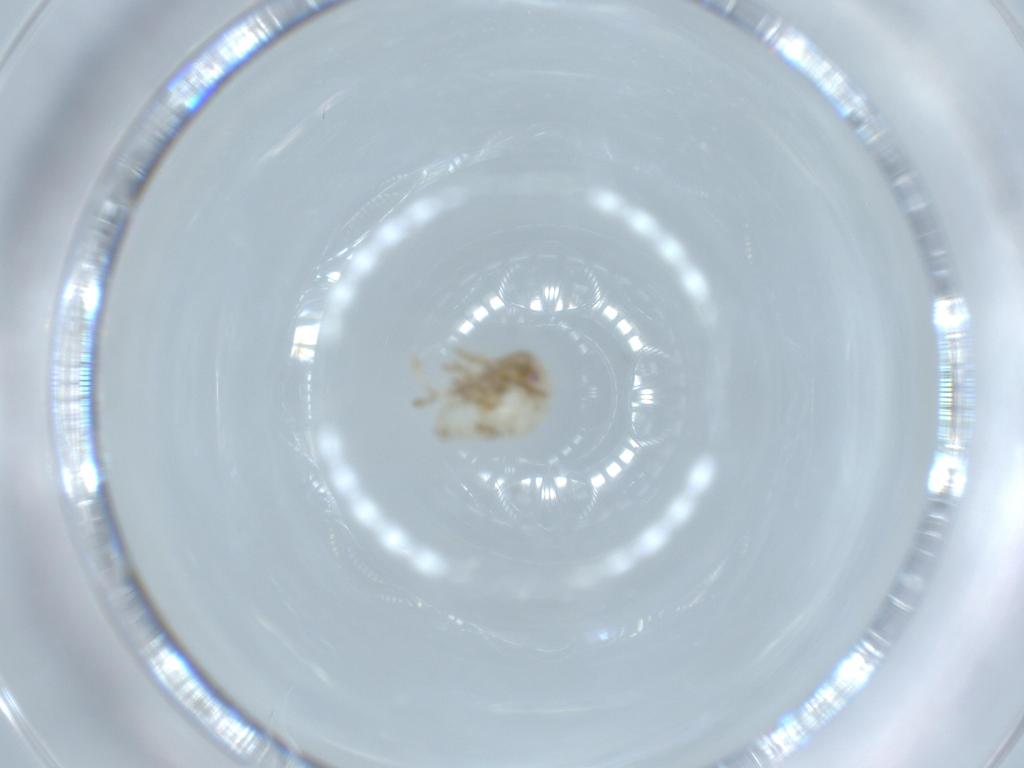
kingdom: Animalia
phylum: Arthropoda
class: Insecta
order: Hemiptera
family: Acanaloniidae
